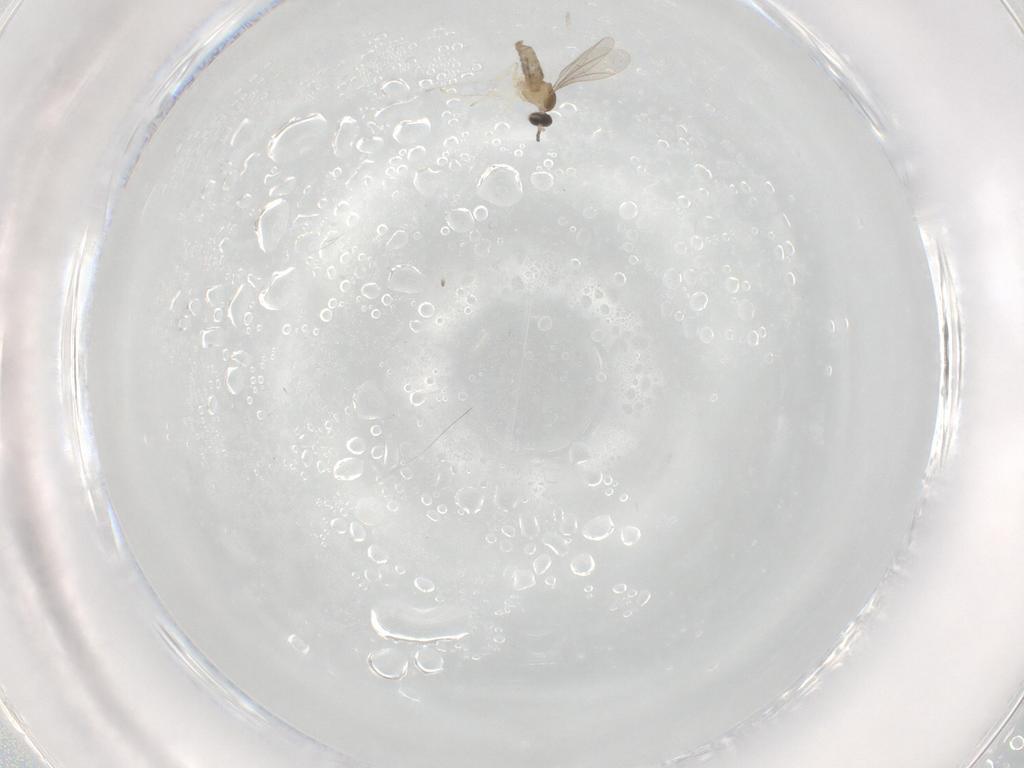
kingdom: Animalia
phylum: Arthropoda
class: Insecta
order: Diptera
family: Cecidomyiidae
